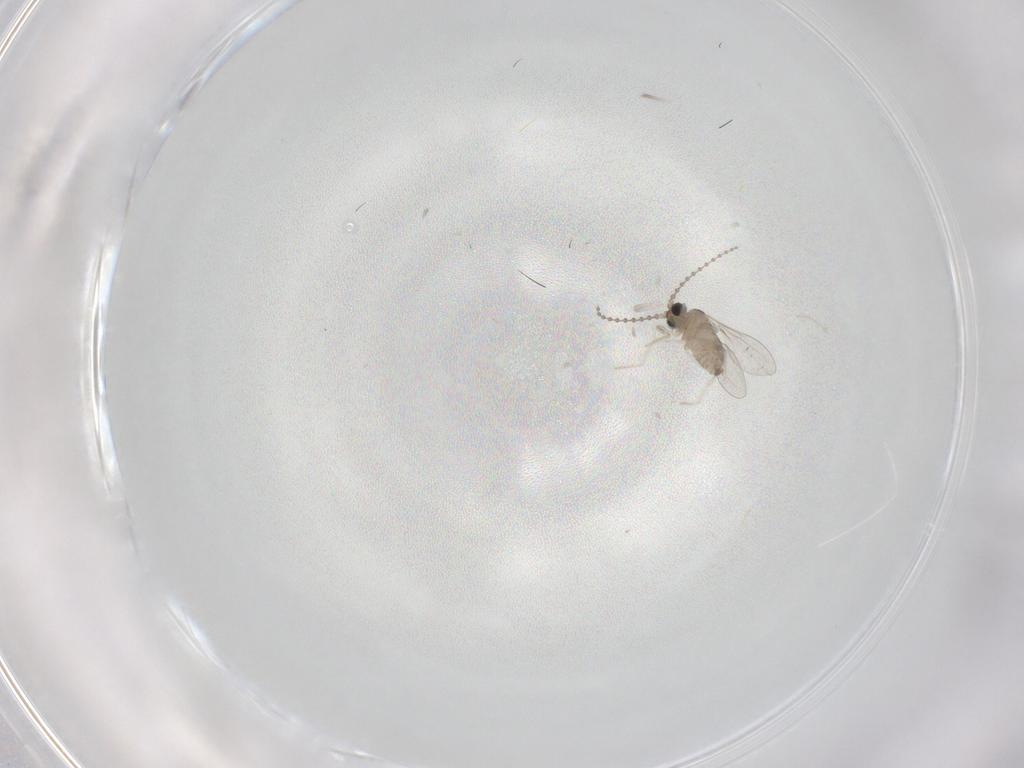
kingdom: Animalia
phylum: Arthropoda
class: Insecta
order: Diptera
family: Cecidomyiidae
